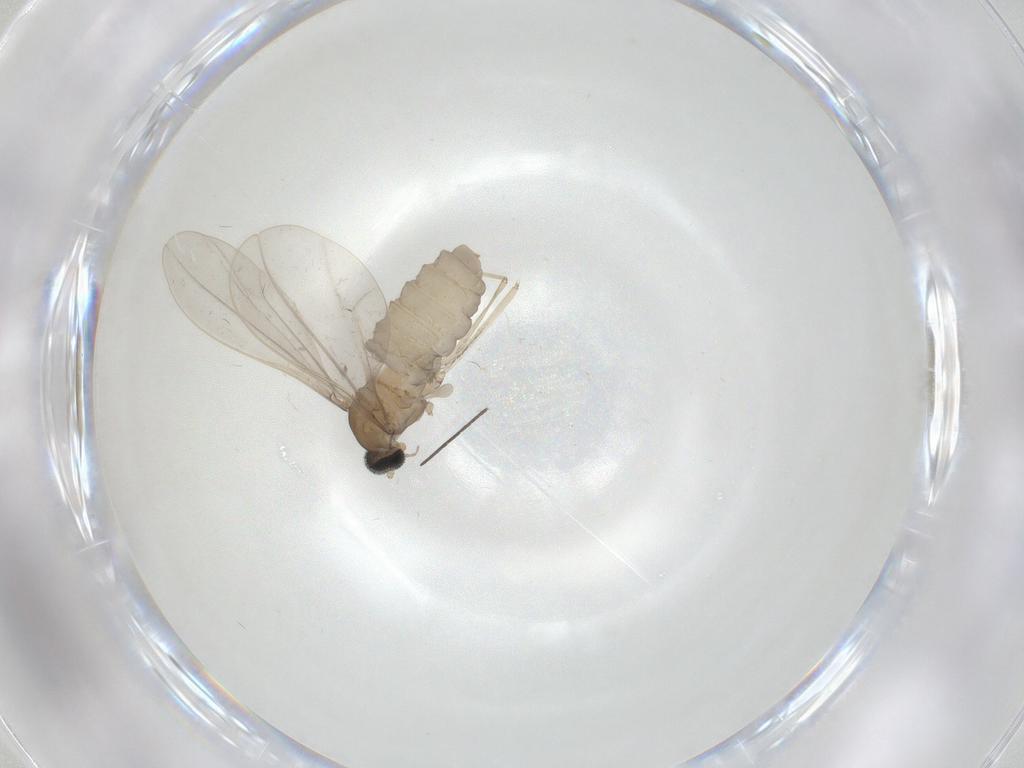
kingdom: Animalia
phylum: Arthropoda
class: Insecta
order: Diptera
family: Cecidomyiidae
